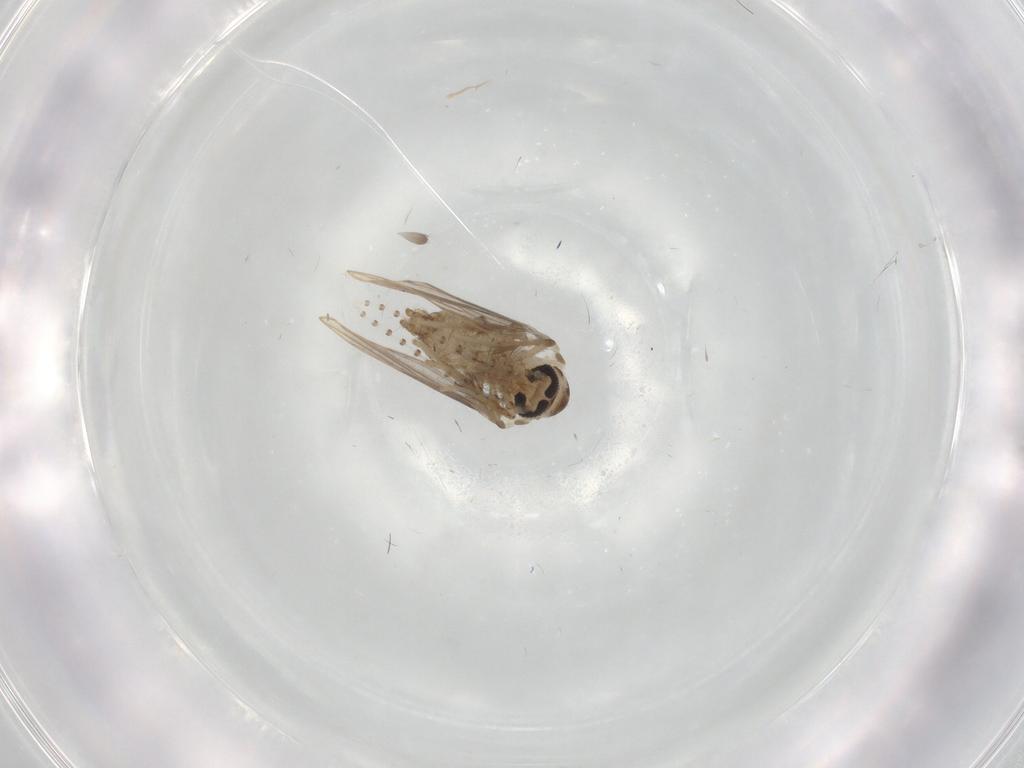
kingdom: Animalia
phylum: Arthropoda
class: Insecta
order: Diptera
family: Psychodidae
